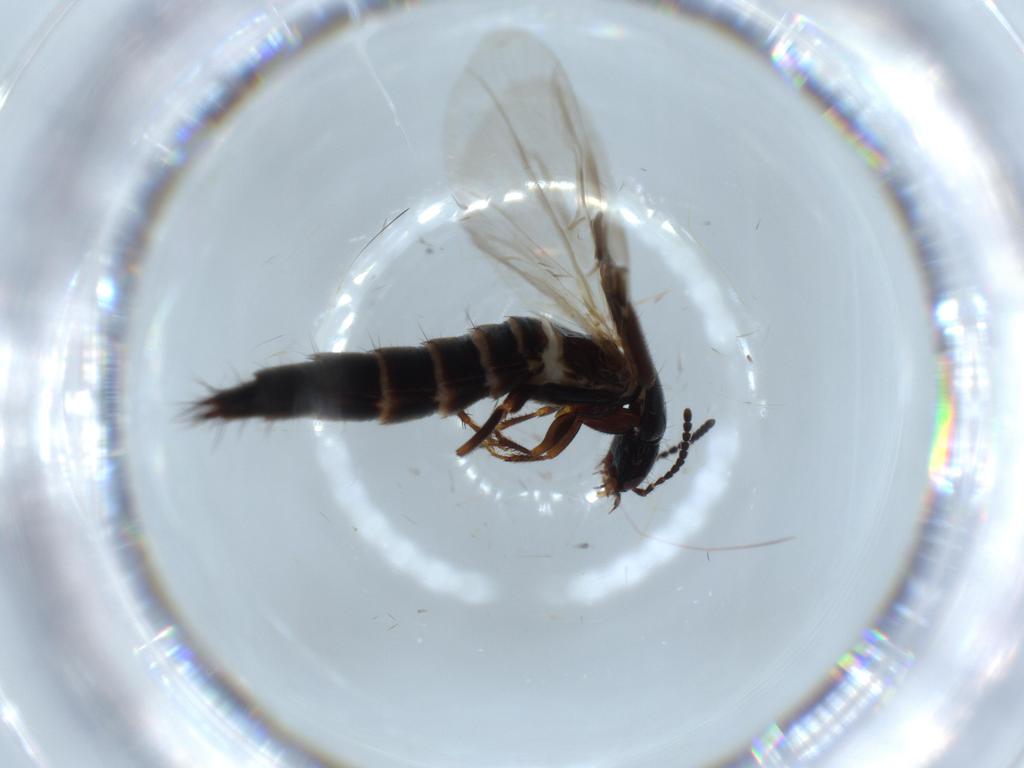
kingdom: Animalia
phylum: Arthropoda
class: Insecta
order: Coleoptera
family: Staphylinidae
